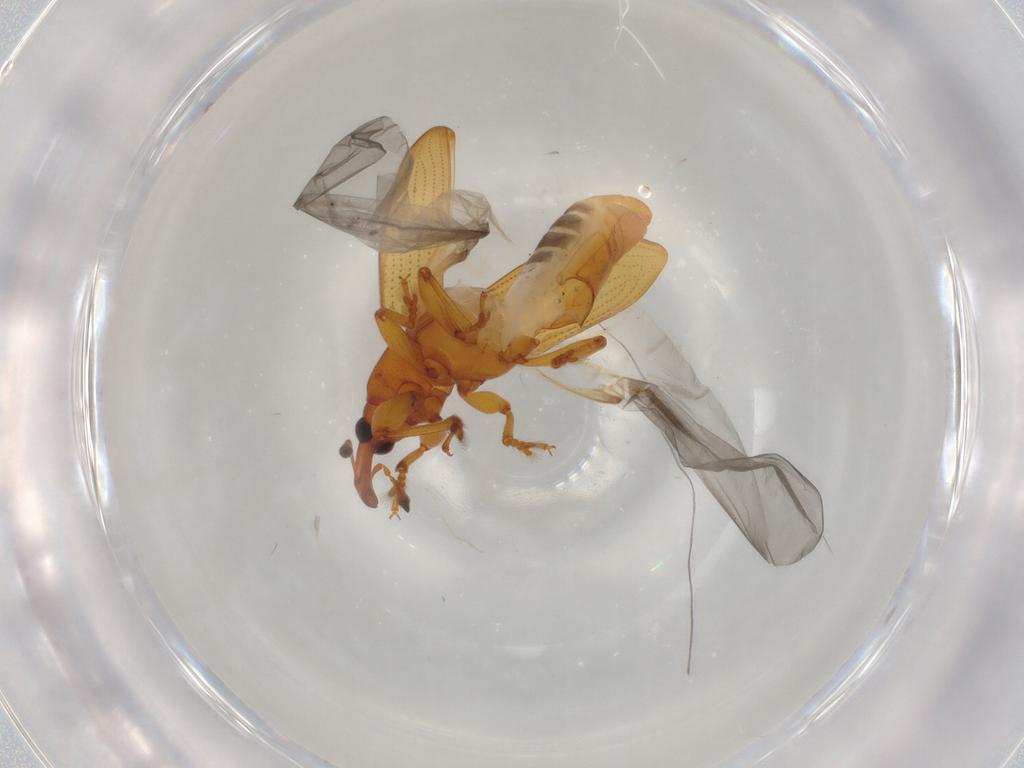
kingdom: Animalia
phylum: Arthropoda
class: Insecta
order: Coleoptera
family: Curculionidae
